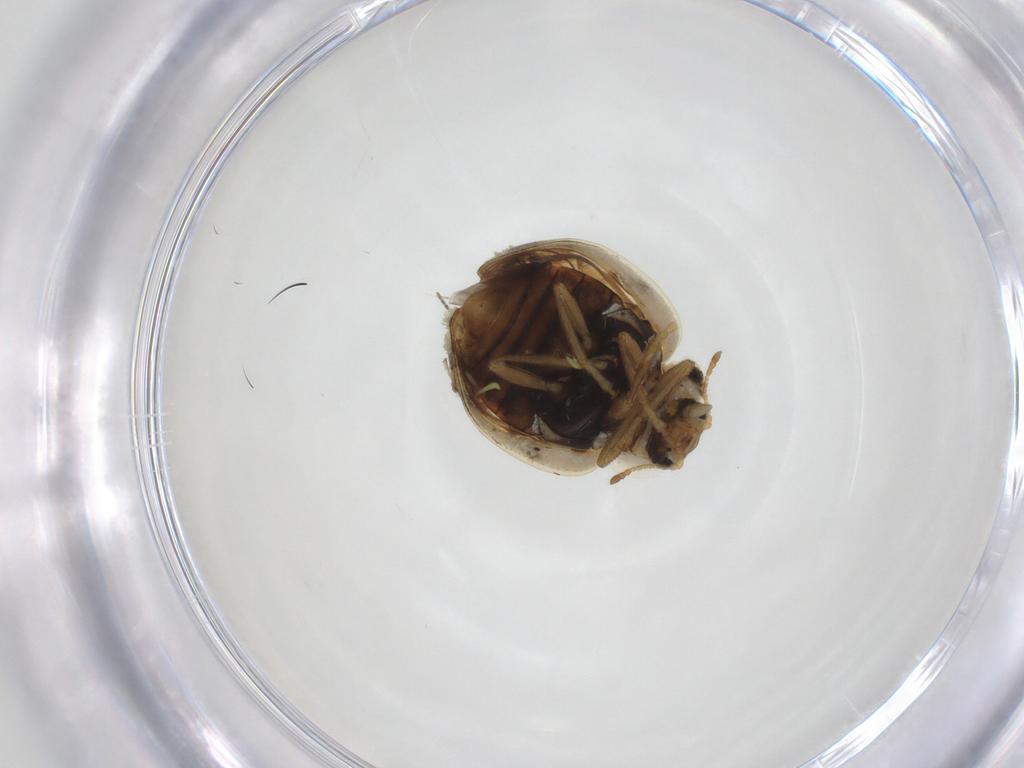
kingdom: Animalia
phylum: Arthropoda
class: Insecta
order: Coleoptera
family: Coccinellidae
